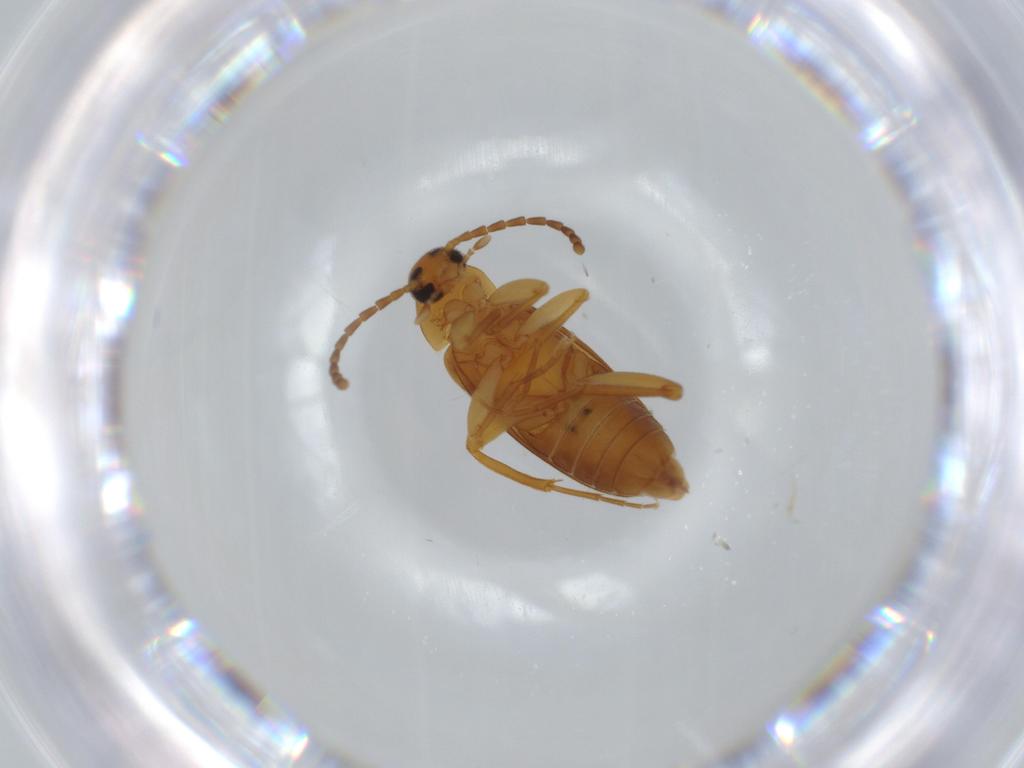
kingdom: Animalia
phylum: Arthropoda
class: Insecta
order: Coleoptera
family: Scraptiidae
